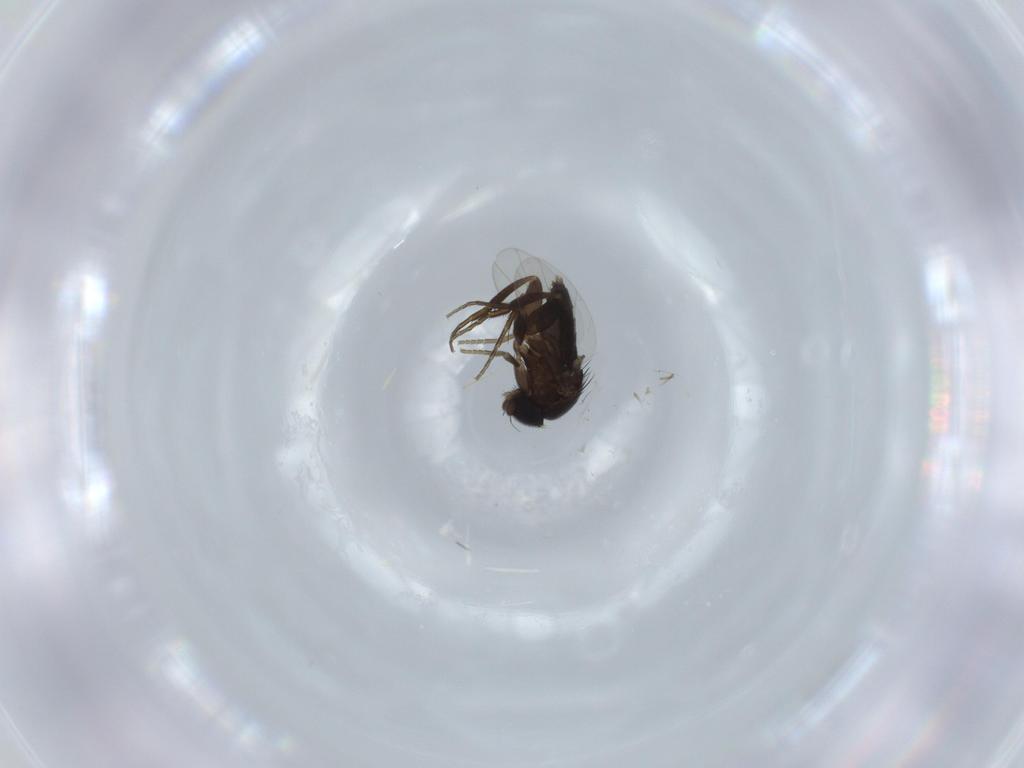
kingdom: Animalia
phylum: Arthropoda
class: Insecta
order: Diptera
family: Phoridae
